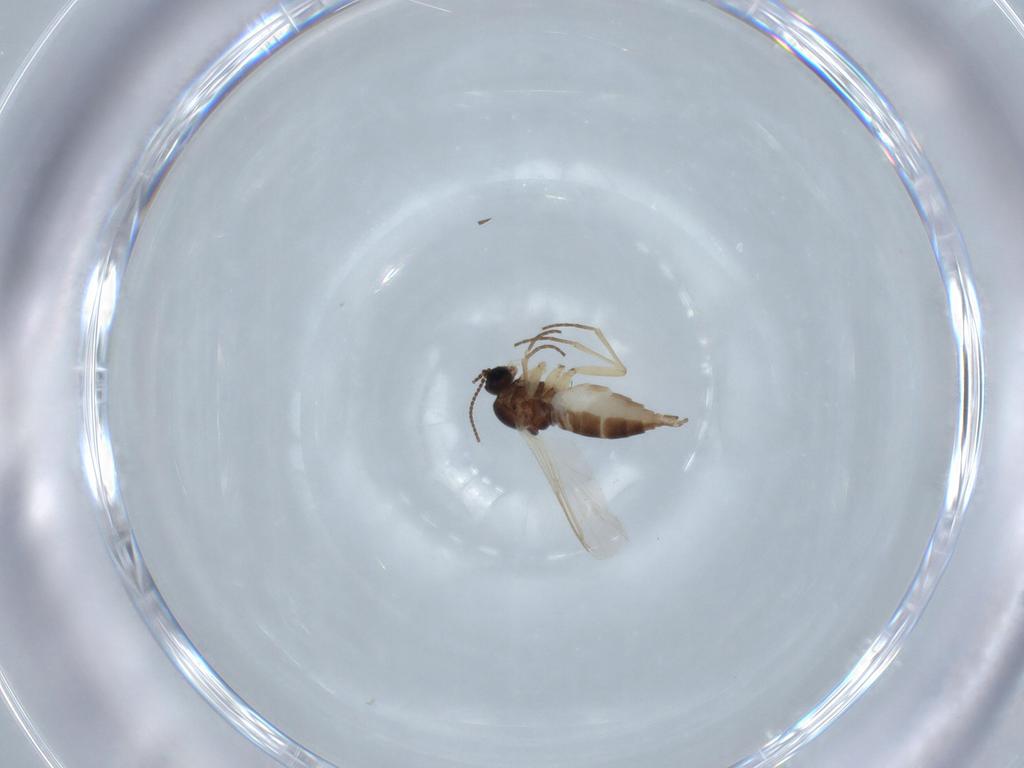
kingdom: Animalia
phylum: Arthropoda
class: Insecta
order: Diptera
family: Sciaridae
